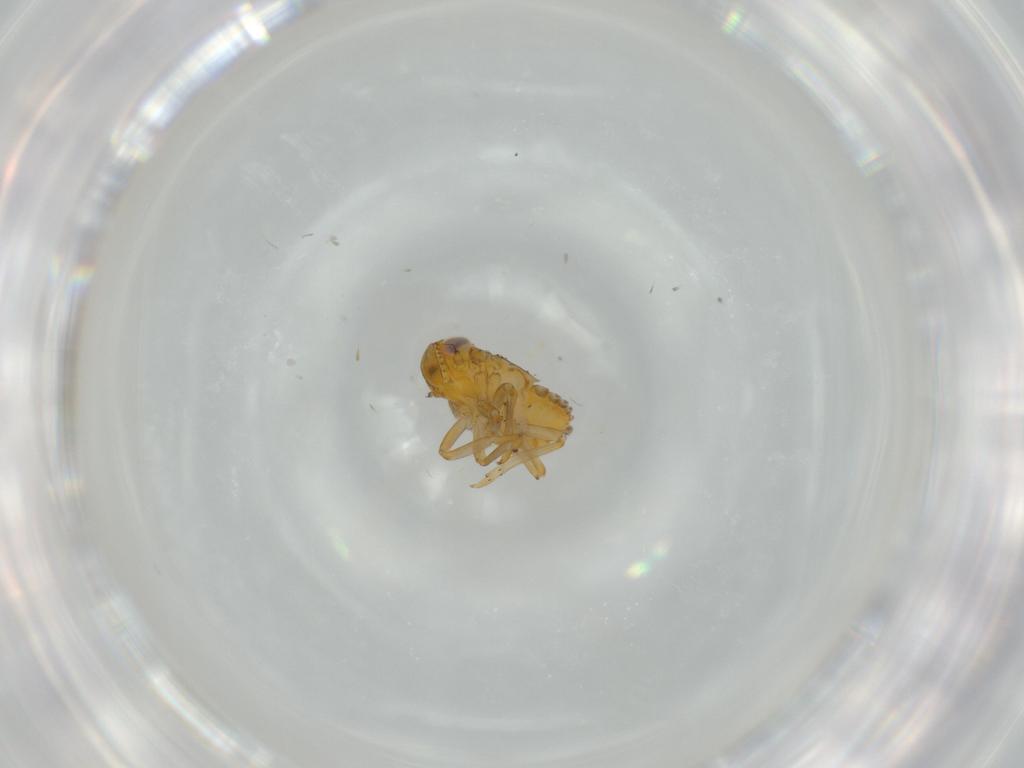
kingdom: Animalia
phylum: Arthropoda
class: Insecta
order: Hemiptera
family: Issidae
